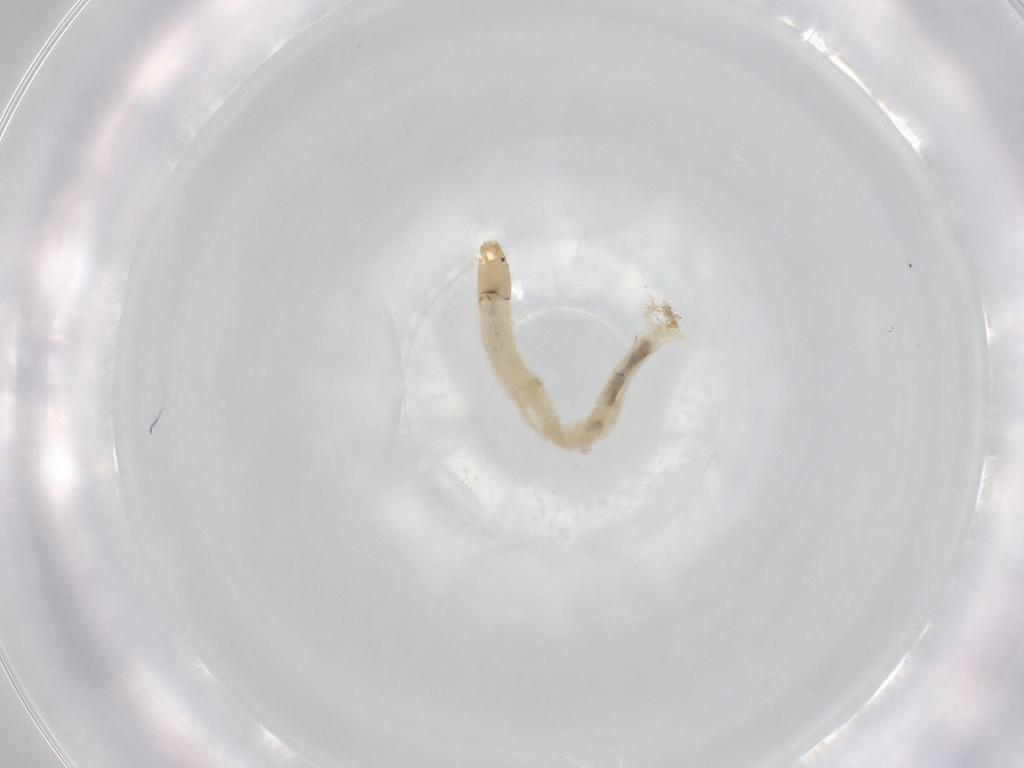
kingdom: Animalia
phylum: Arthropoda
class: Insecta
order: Diptera
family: Chironomidae
